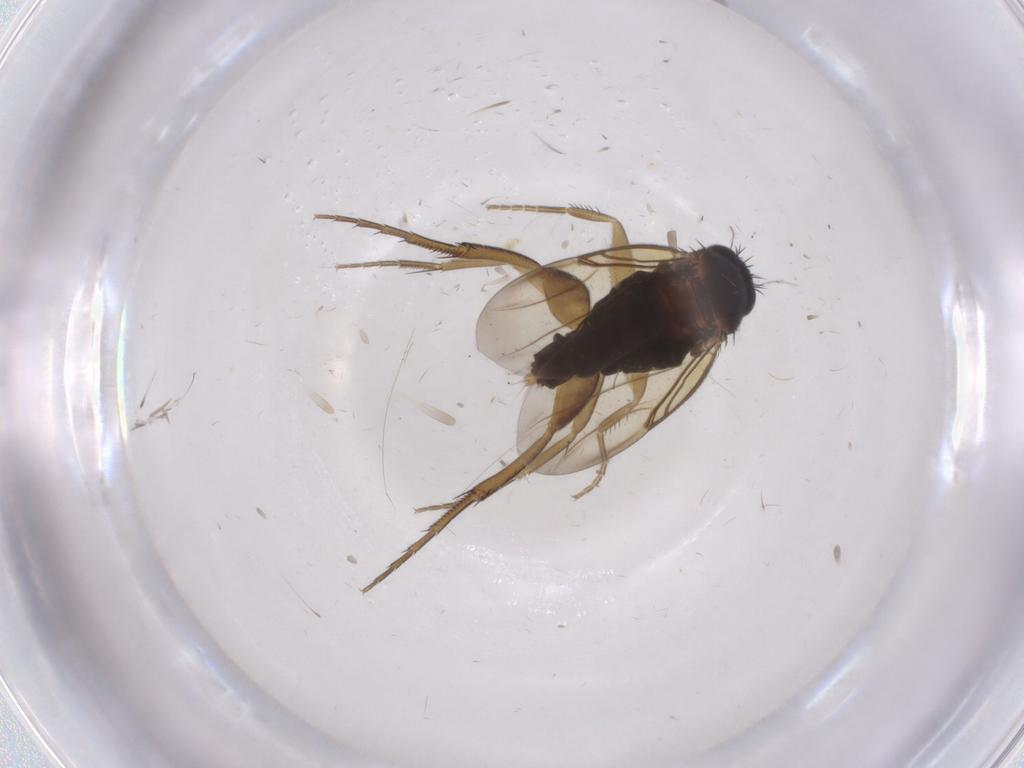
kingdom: Animalia
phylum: Arthropoda
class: Insecta
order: Diptera
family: Phoridae
